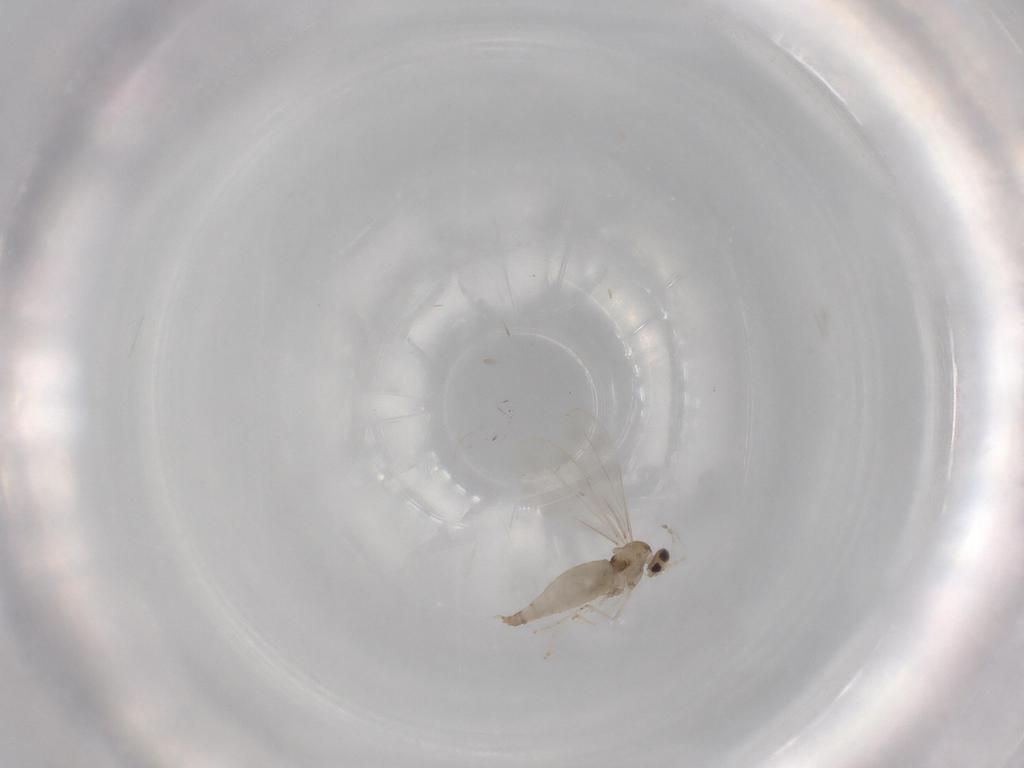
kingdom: Animalia
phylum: Arthropoda
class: Insecta
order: Diptera
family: Cecidomyiidae
